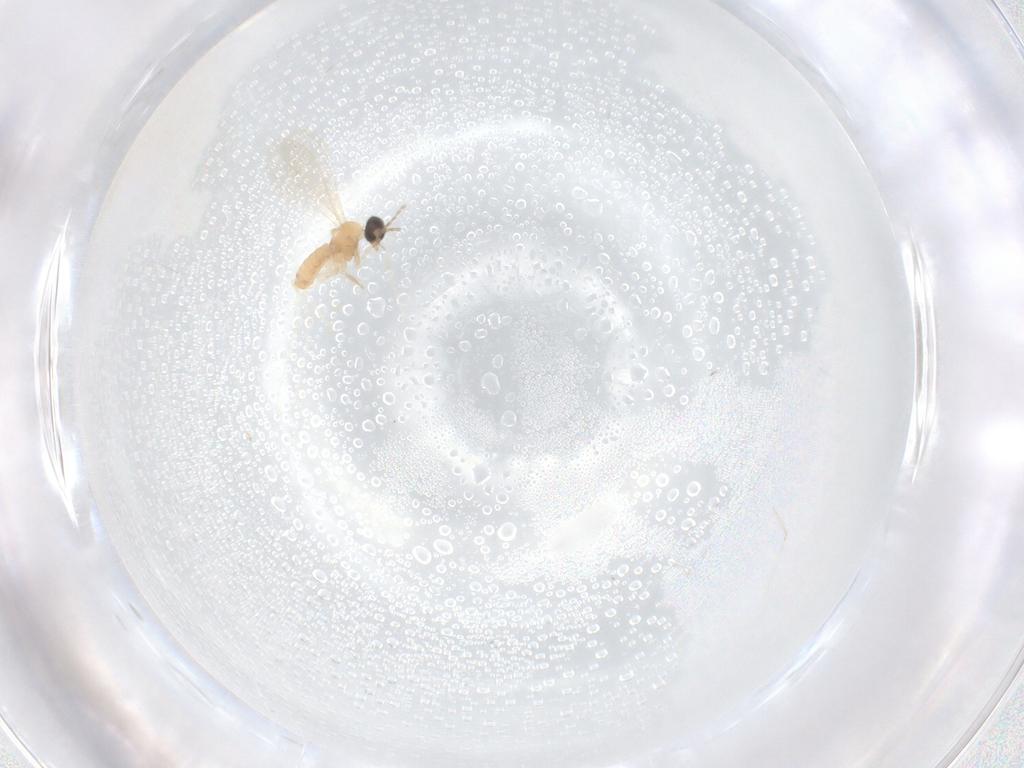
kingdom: Animalia
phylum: Arthropoda
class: Insecta
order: Diptera
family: Cecidomyiidae
